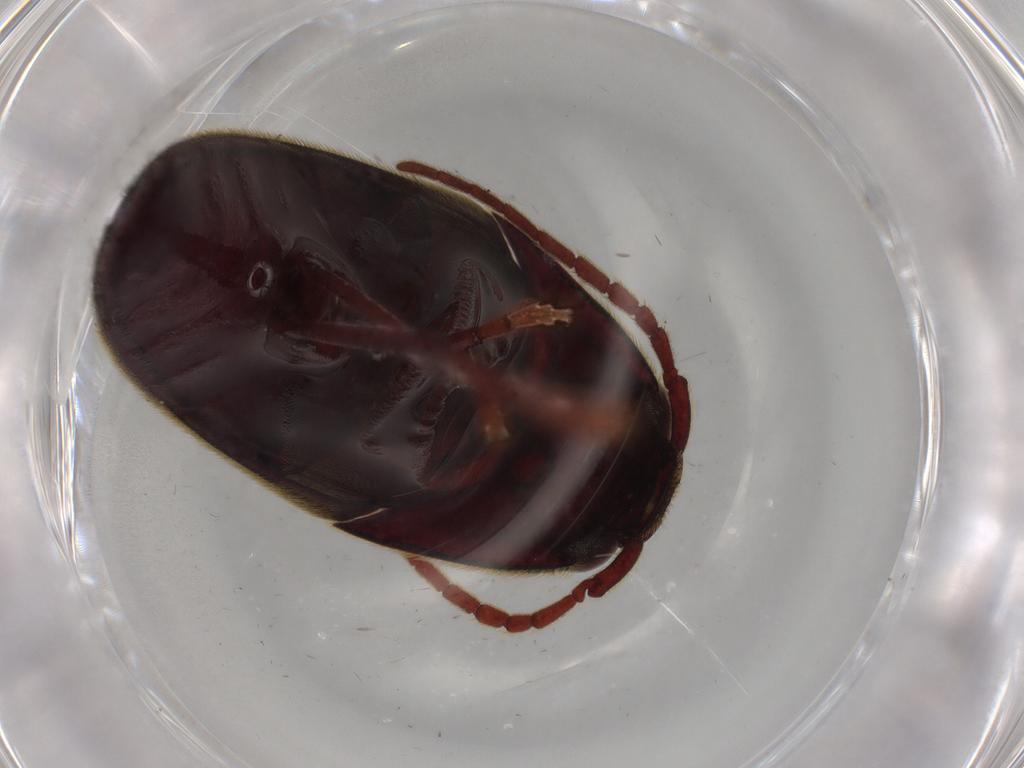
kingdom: Animalia
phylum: Arthropoda
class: Insecta
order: Coleoptera
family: Eucnemidae
